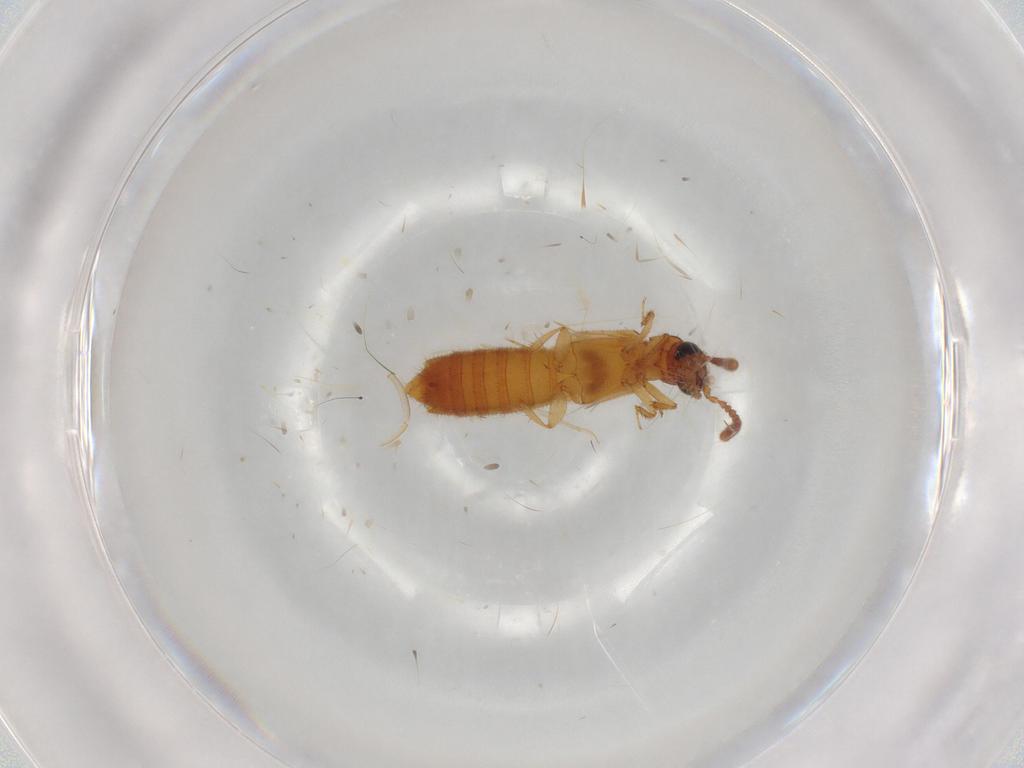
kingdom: Animalia
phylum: Arthropoda
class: Insecta
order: Coleoptera
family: Staphylinidae
